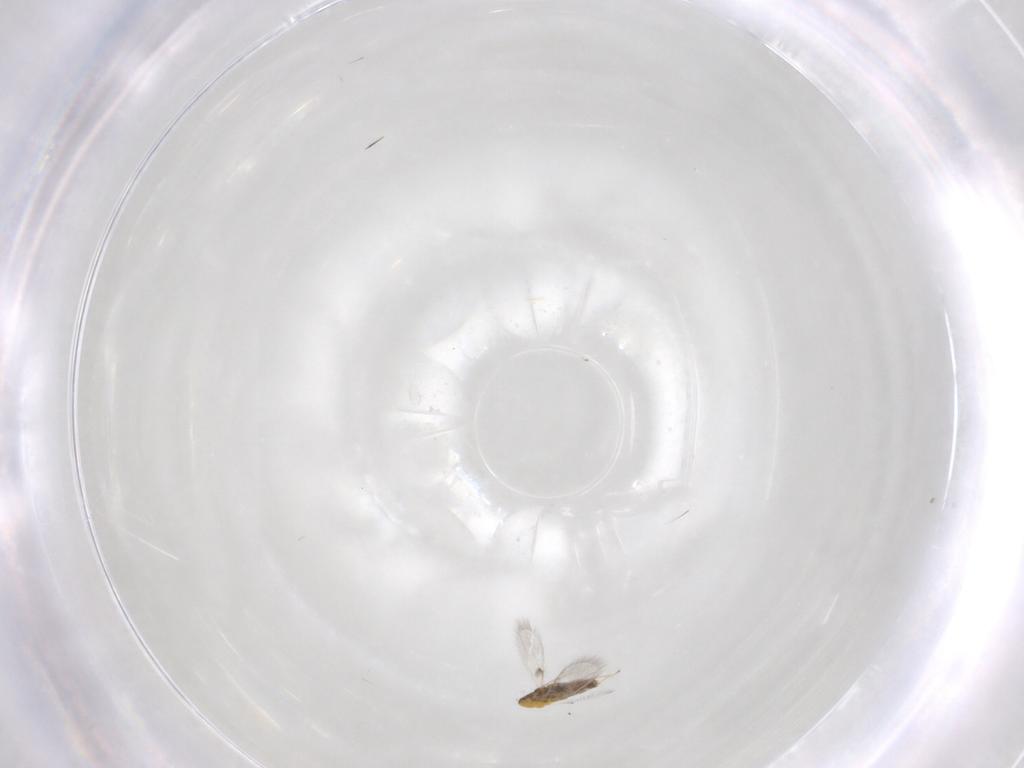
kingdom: Animalia
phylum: Arthropoda
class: Insecta
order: Hymenoptera
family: Trichogrammatidae
